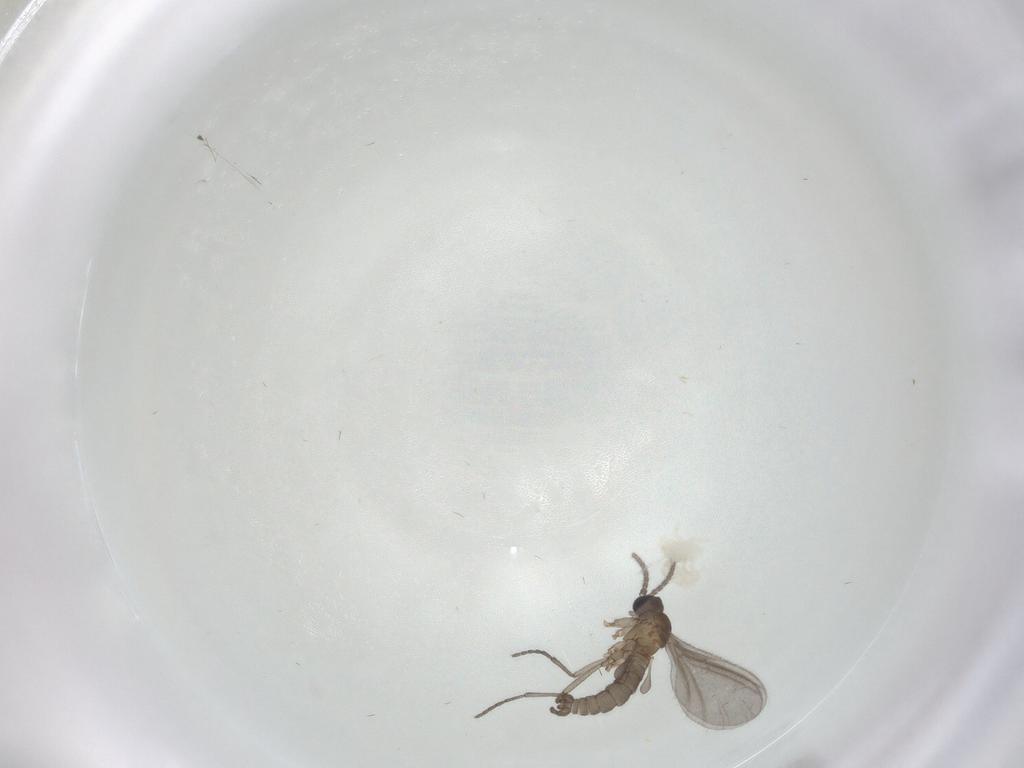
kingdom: Animalia
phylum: Arthropoda
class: Insecta
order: Diptera
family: Sciaridae
